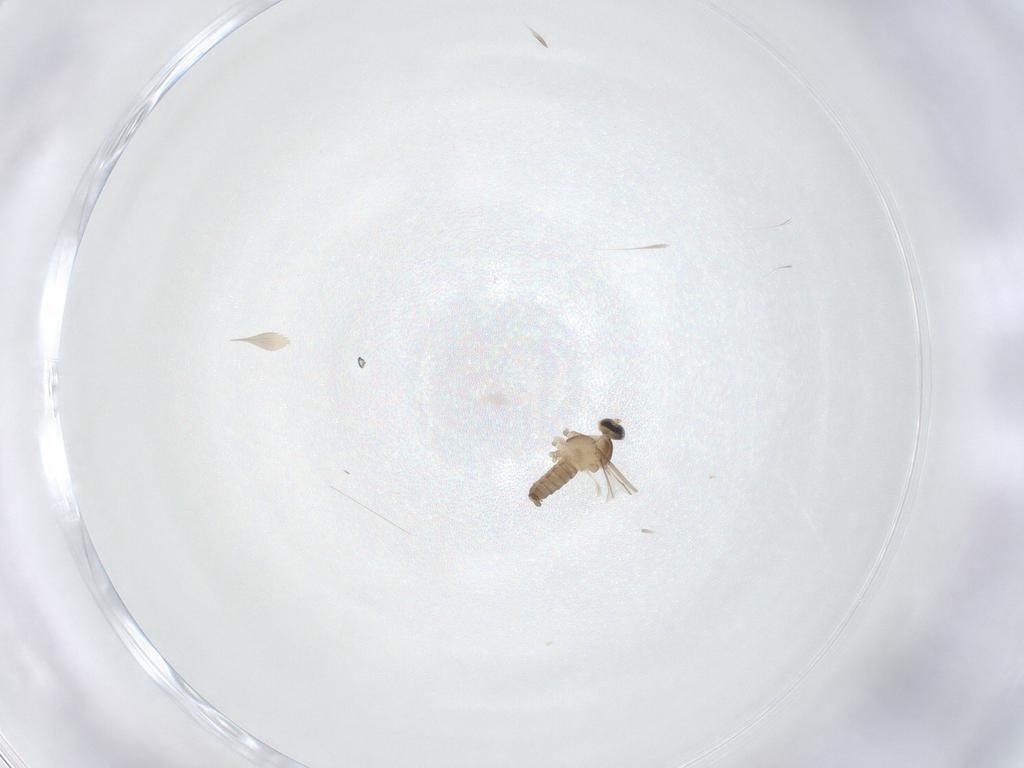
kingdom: Animalia
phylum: Arthropoda
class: Insecta
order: Diptera
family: Cecidomyiidae
